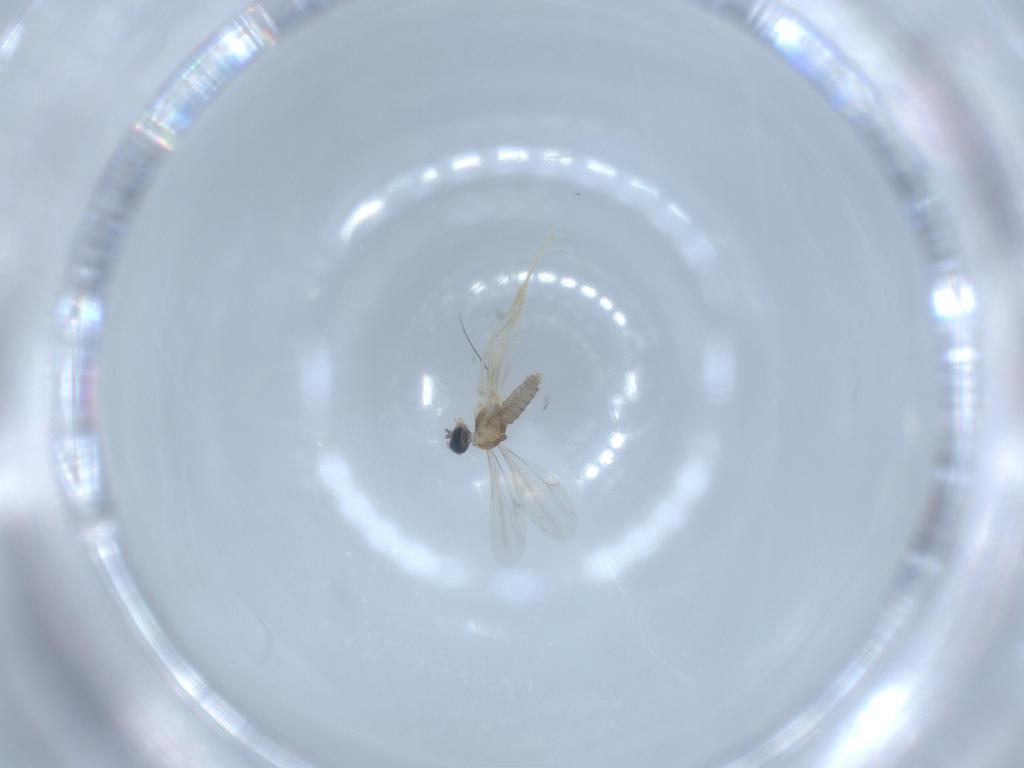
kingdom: Animalia
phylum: Arthropoda
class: Insecta
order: Diptera
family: Cecidomyiidae
